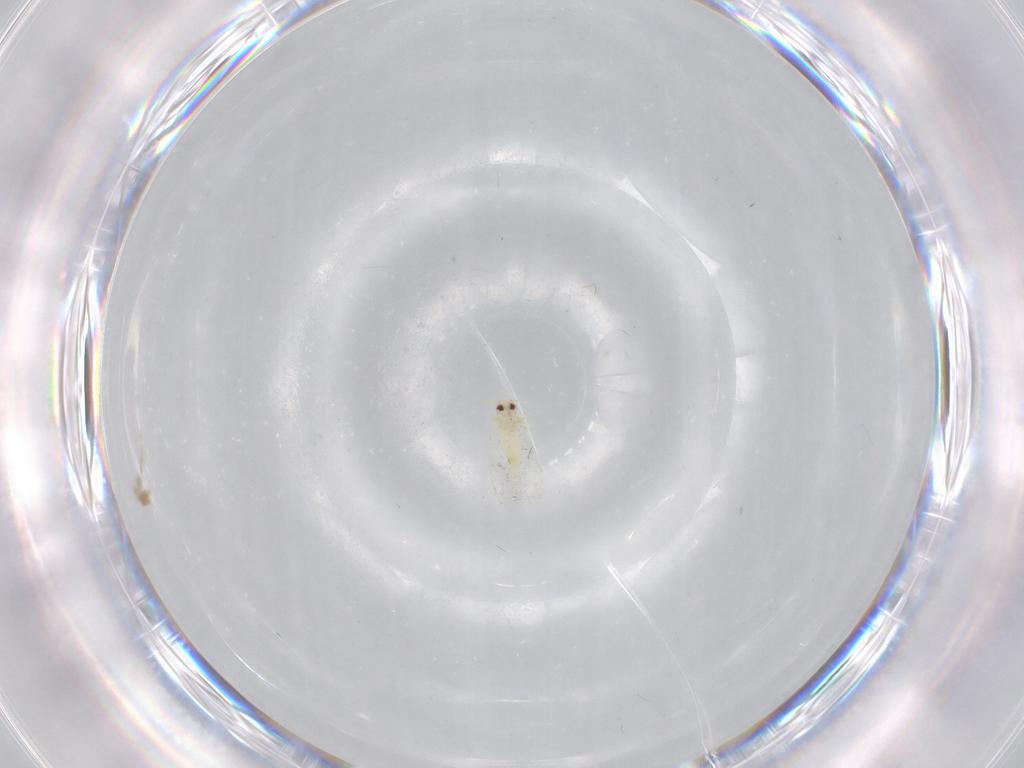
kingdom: Animalia
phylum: Arthropoda
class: Insecta
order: Hemiptera
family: Aleyrodidae
